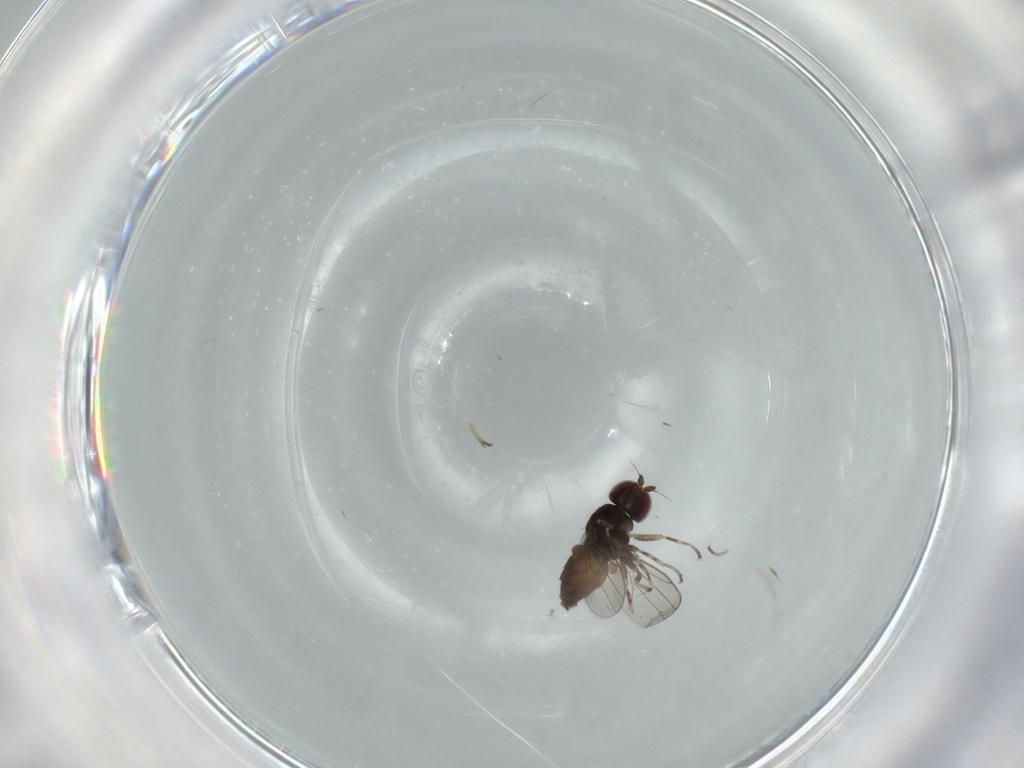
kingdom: Animalia
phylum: Arthropoda
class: Insecta
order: Diptera
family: Chloropidae
